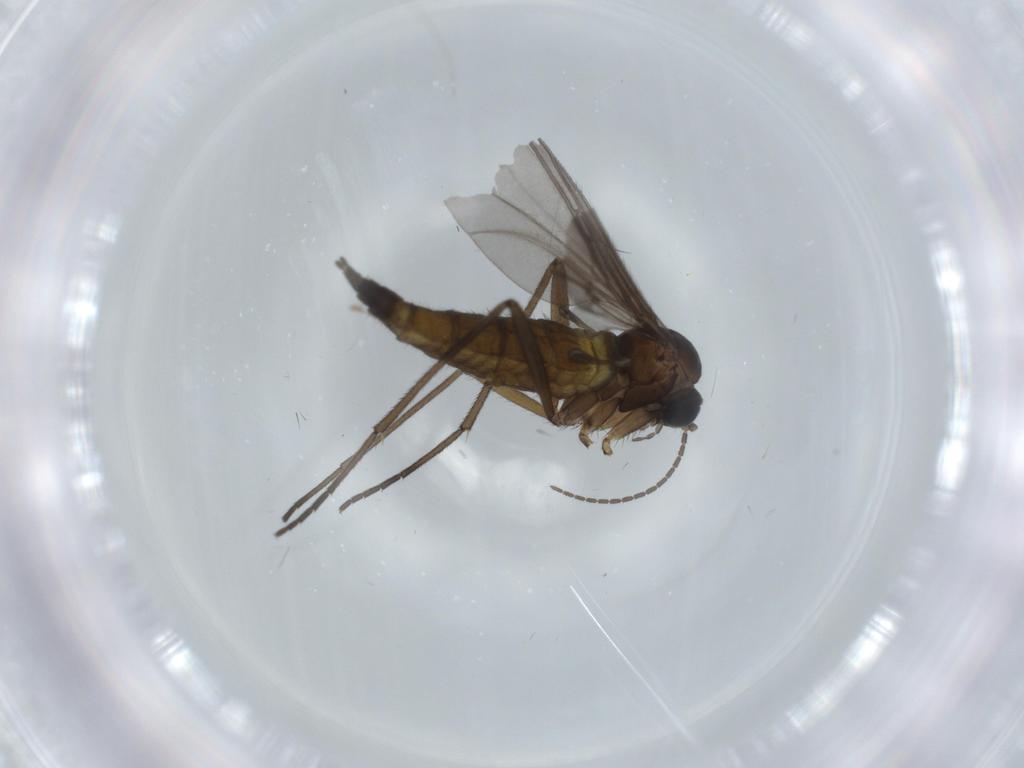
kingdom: Animalia
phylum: Arthropoda
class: Insecta
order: Diptera
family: Sciaridae
